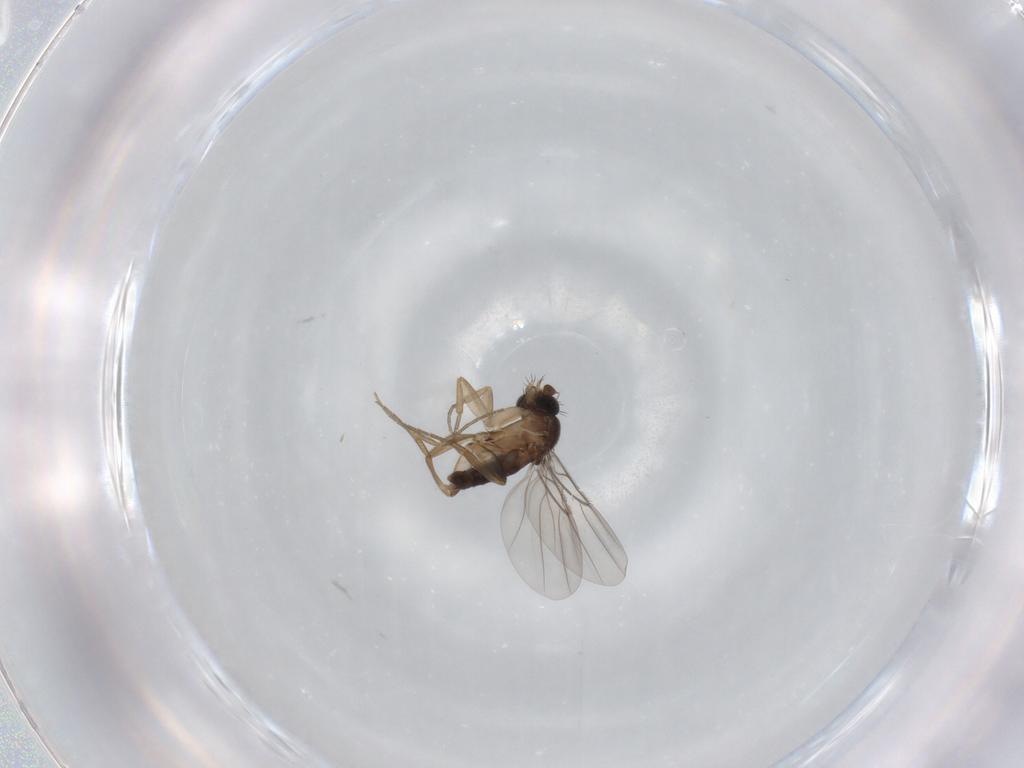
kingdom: Animalia
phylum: Arthropoda
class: Insecta
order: Diptera
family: Phoridae
